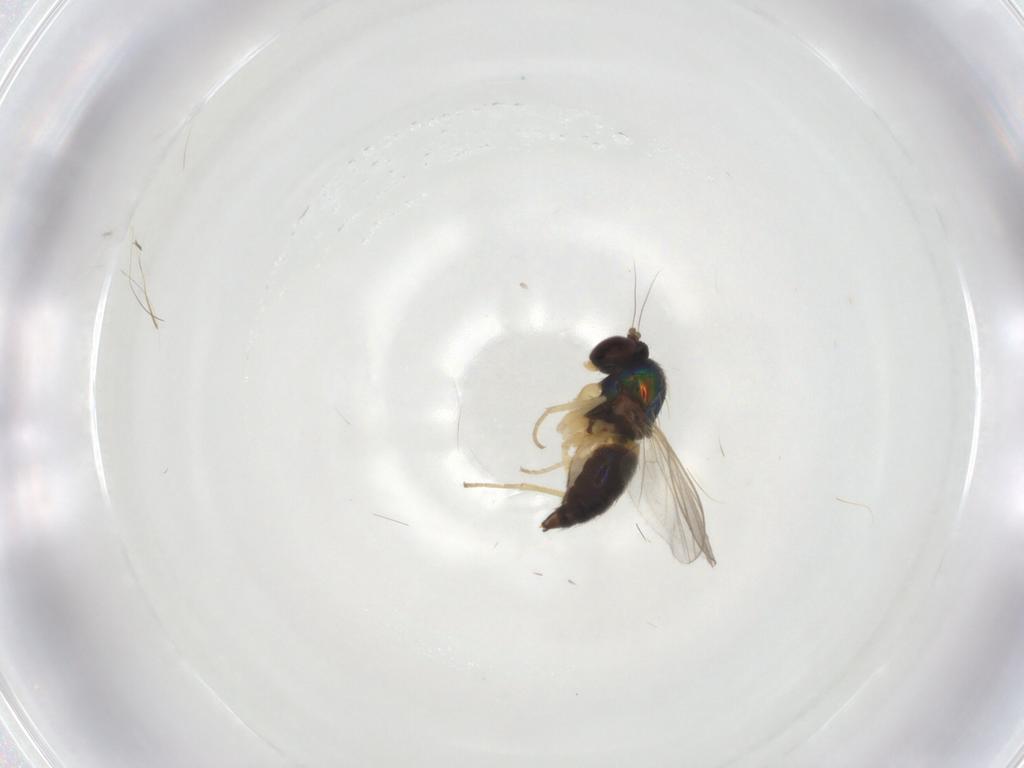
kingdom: Animalia
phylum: Arthropoda
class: Insecta
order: Diptera
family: Dolichopodidae
